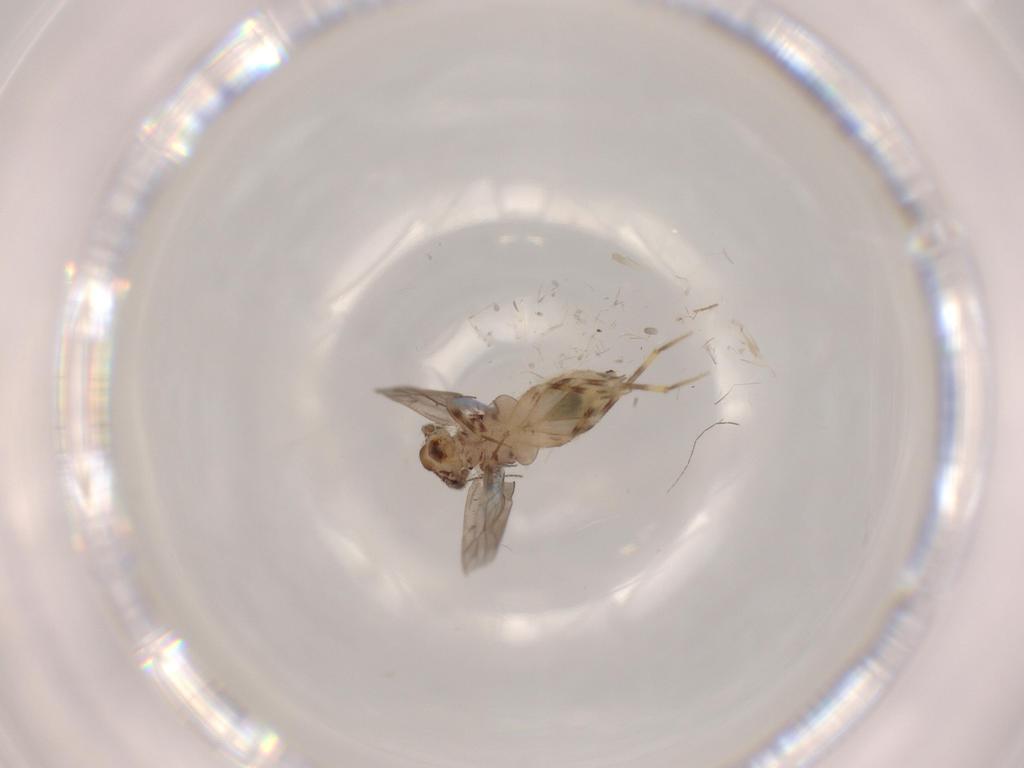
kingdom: Animalia
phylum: Arthropoda
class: Insecta
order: Psocodea
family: Lepidopsocidae
